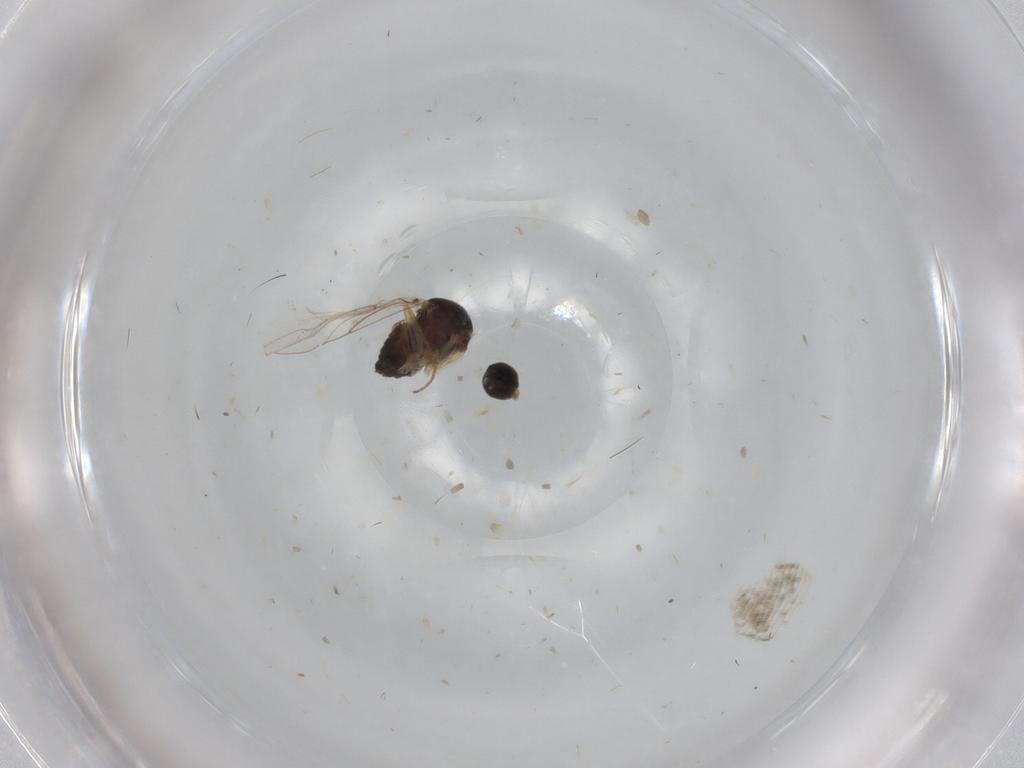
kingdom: Animalia
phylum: Arthropoda
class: Insecta
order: Diptera
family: Hybotidae
